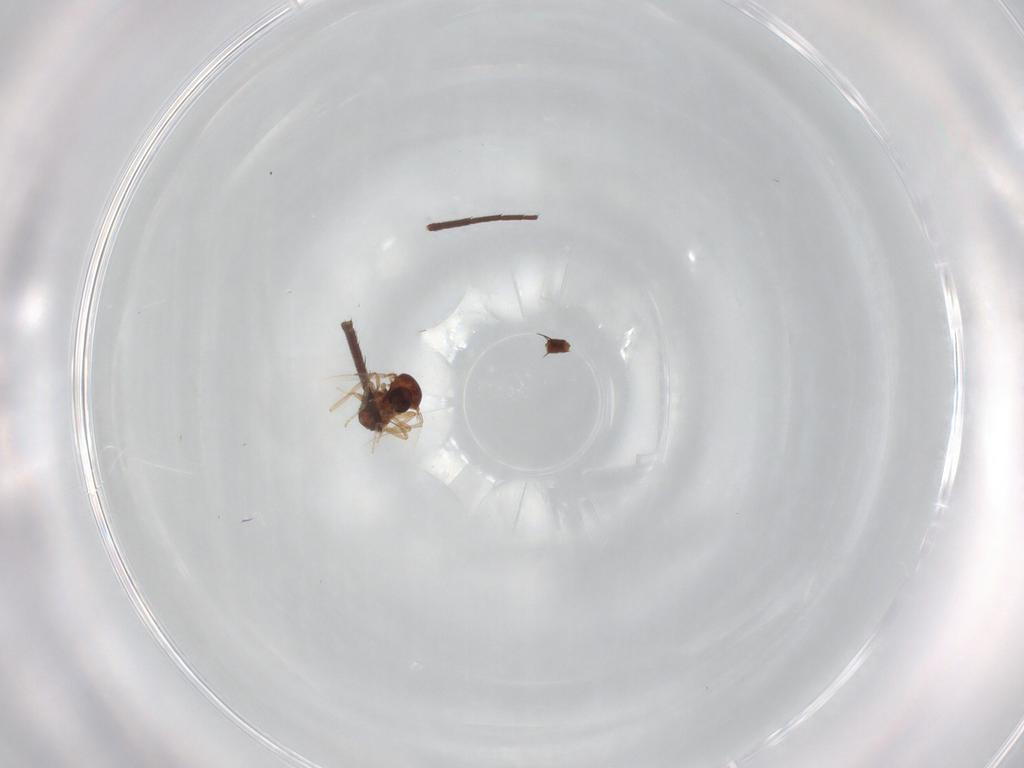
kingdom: Animalia
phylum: Arthropoda
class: Insecta
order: Diptera
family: Ceratopogonidae
